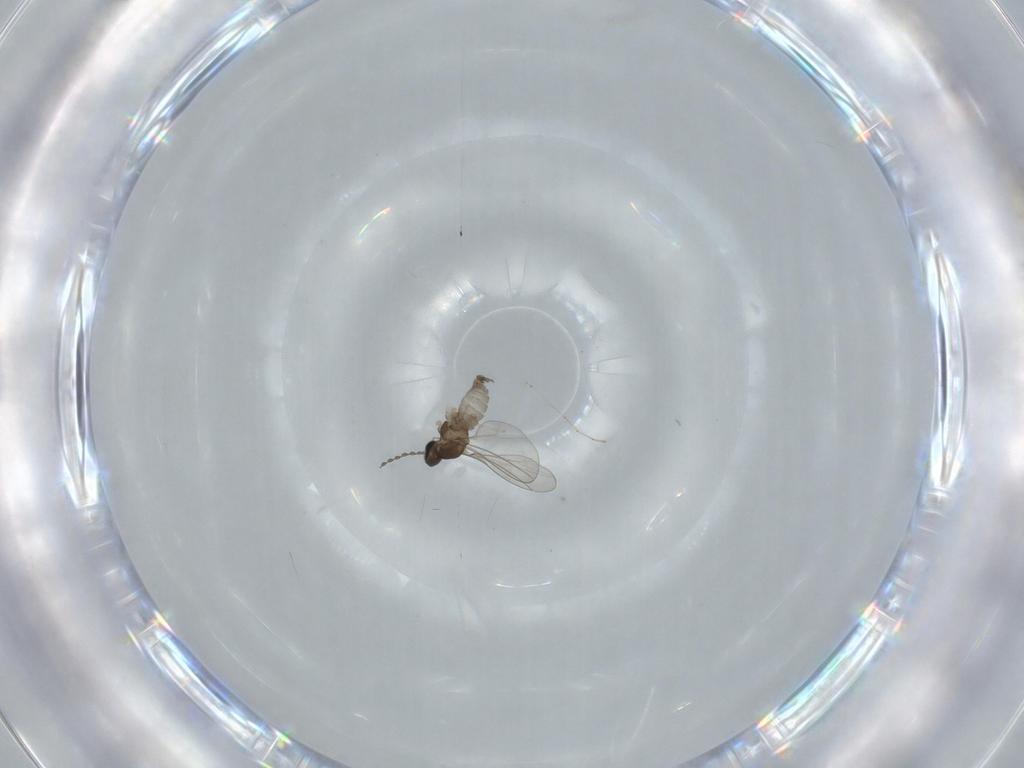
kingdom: Animalia
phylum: Arthropoda
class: Insecta
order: Diptera
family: Cecidomyiidae
